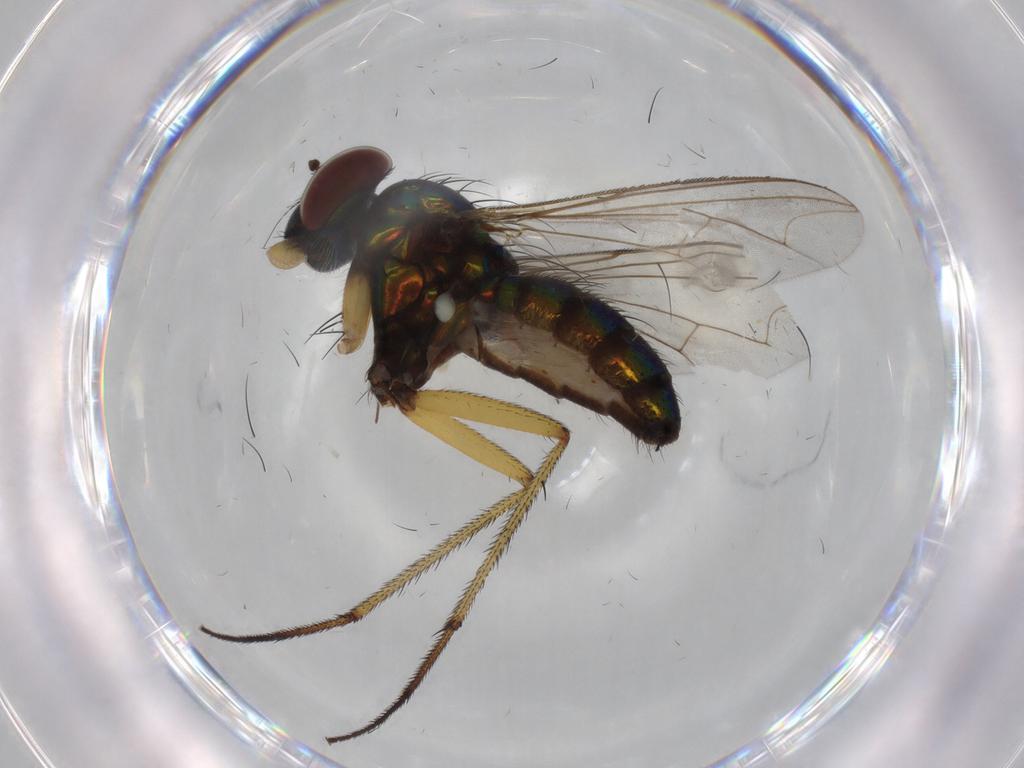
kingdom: Animalia
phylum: Arthropoda
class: Insecta
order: Diptera
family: Dolichopodidae
